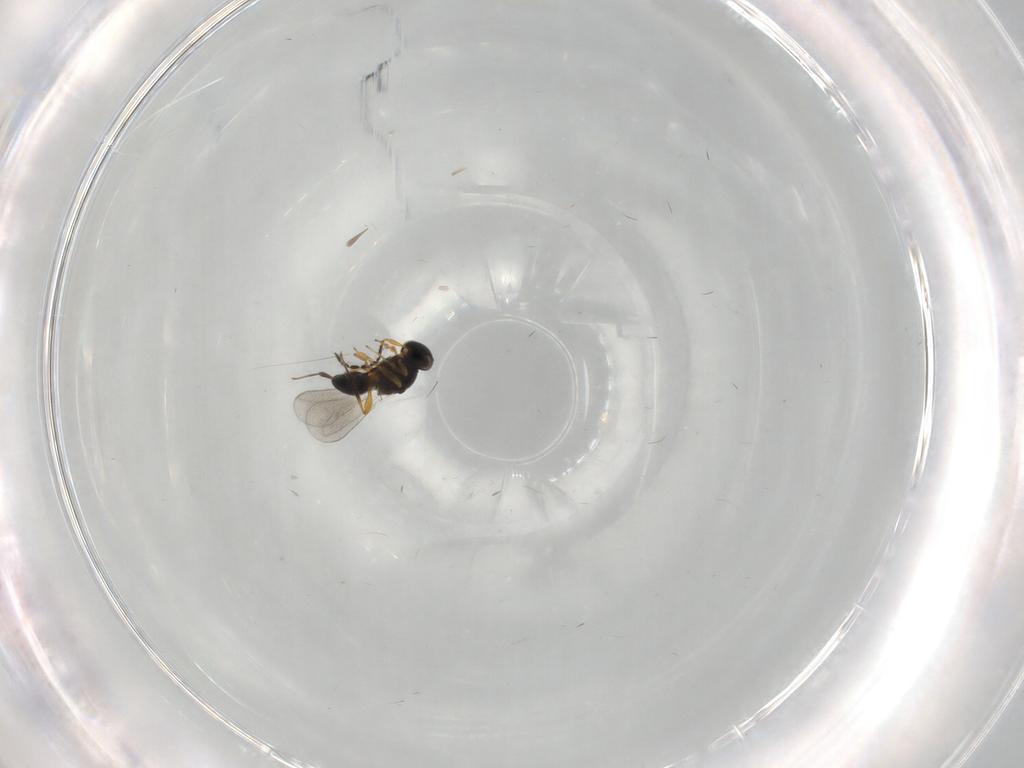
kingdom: Animalia
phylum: Arthropoda
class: Insecta
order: Hymenoptera
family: Platygastridae
